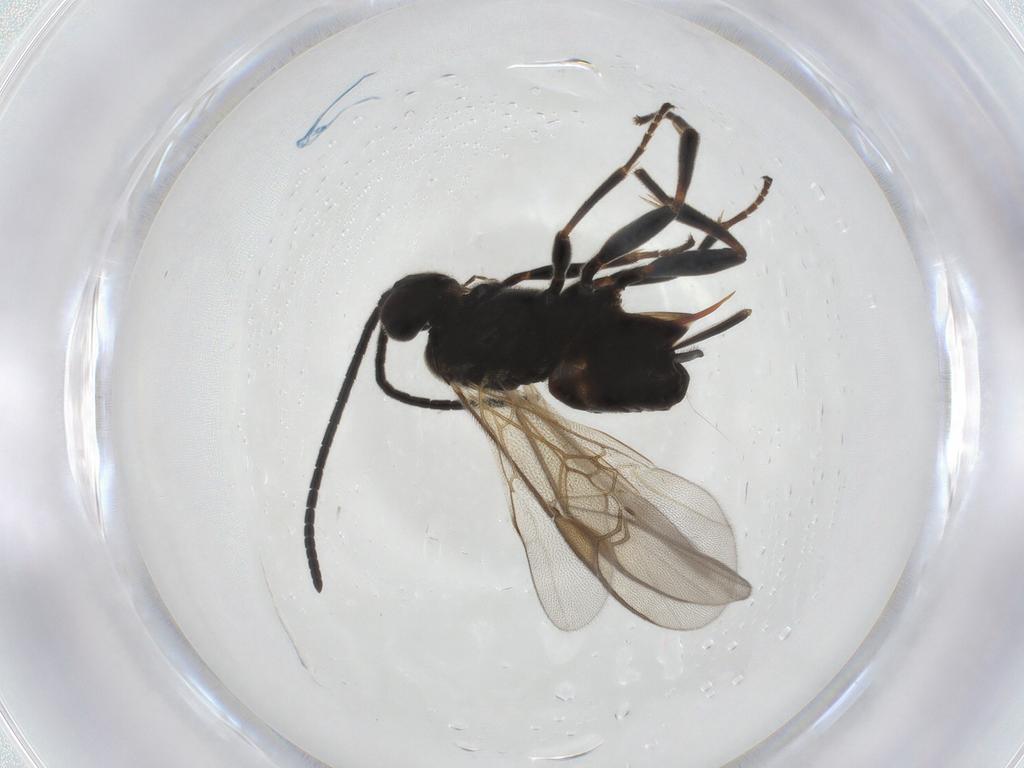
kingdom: Animalia
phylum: Arthropoda
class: Insecta
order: Hymenoptera
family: Braconidae
